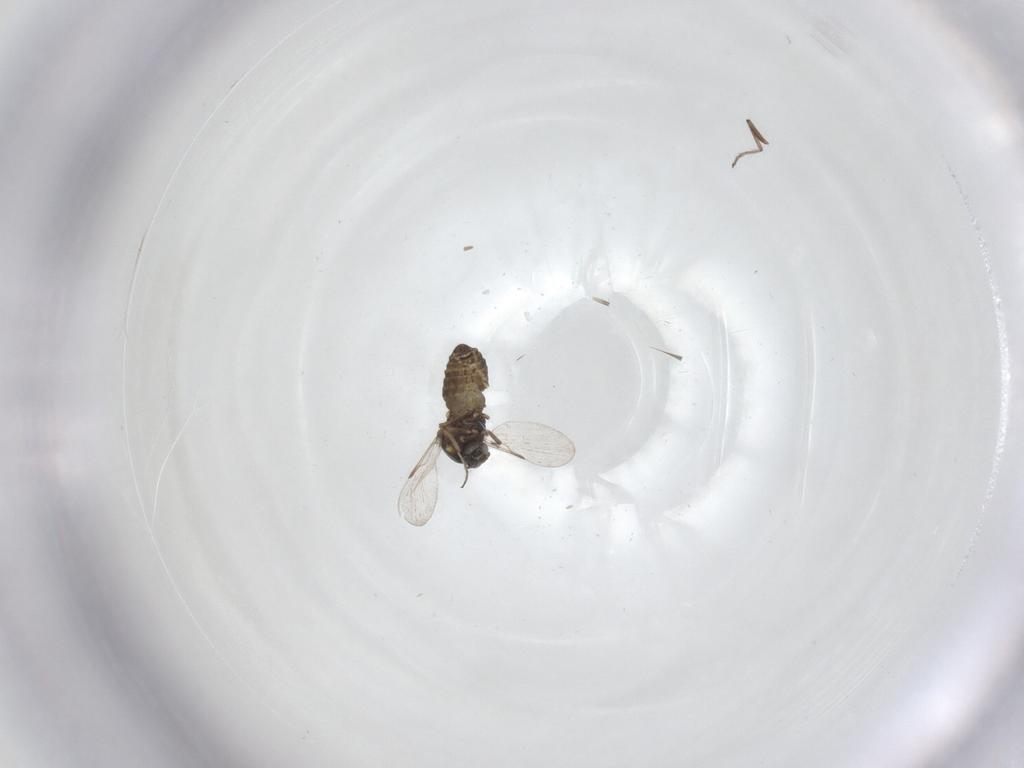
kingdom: Animalia
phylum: Arthropoda
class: Insecta
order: Diptera
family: Ceratopogonidae
